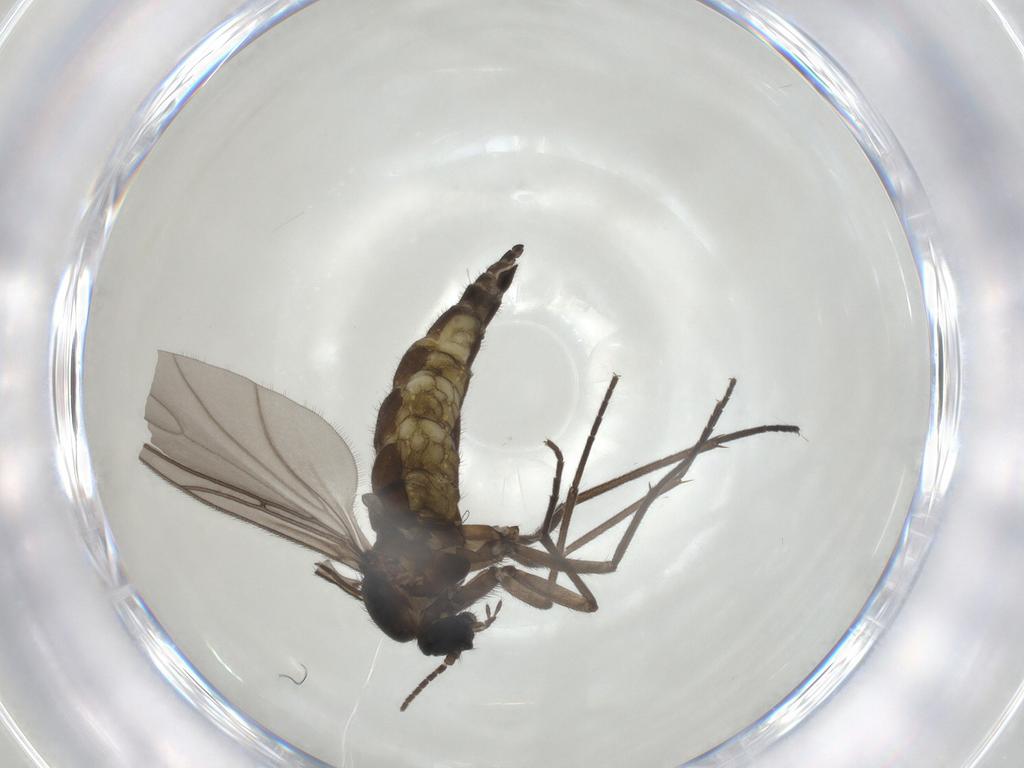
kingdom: Animalia
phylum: Arthropoda
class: Insecta
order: Diptera
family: Sciaridae
